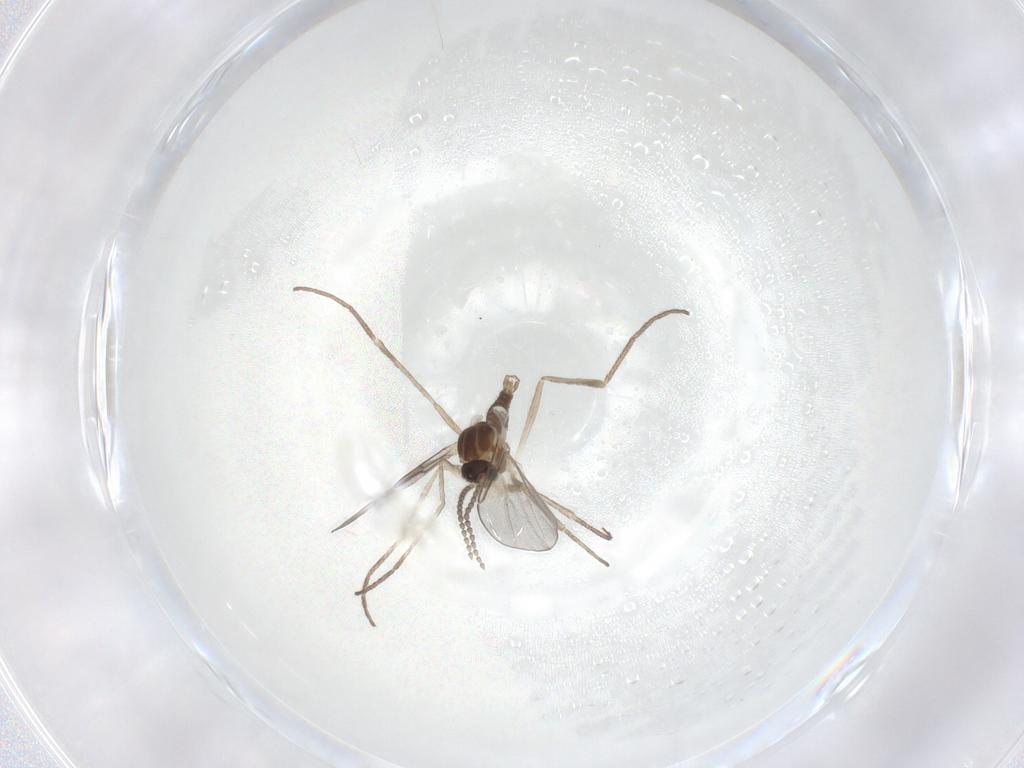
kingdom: Animalia
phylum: Arthropoda
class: Insecta
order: Diptera
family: Cecidomyiidae
